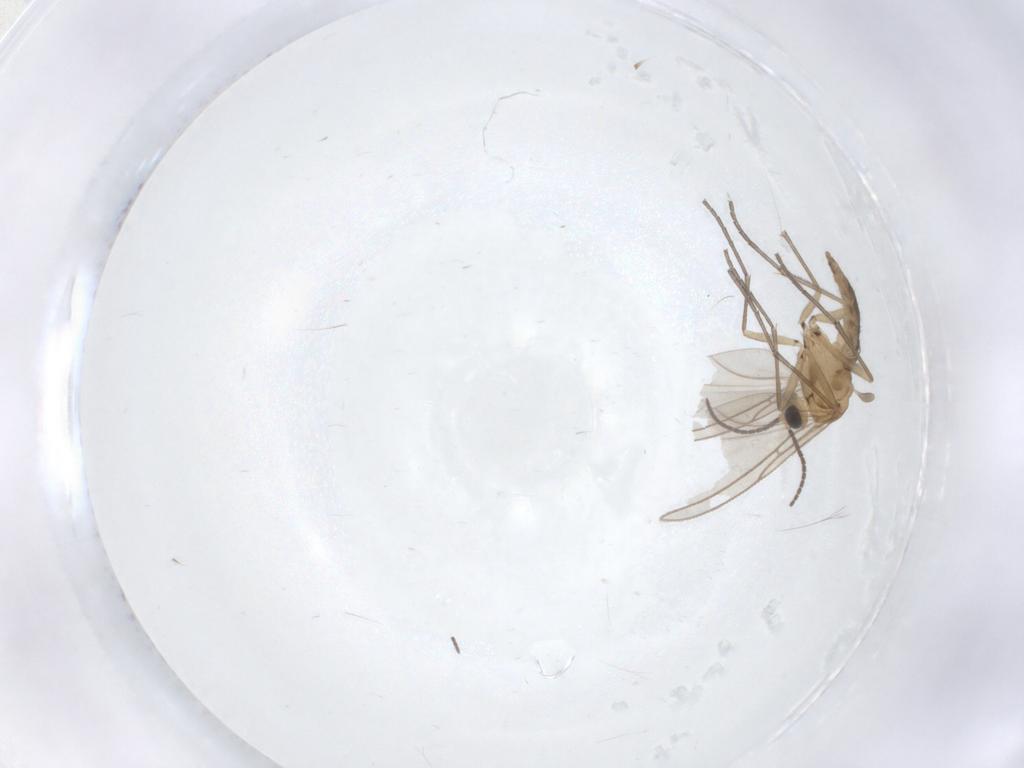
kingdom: Animalia
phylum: Arthropoda
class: Insecta
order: Diptera
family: Sciaridae
